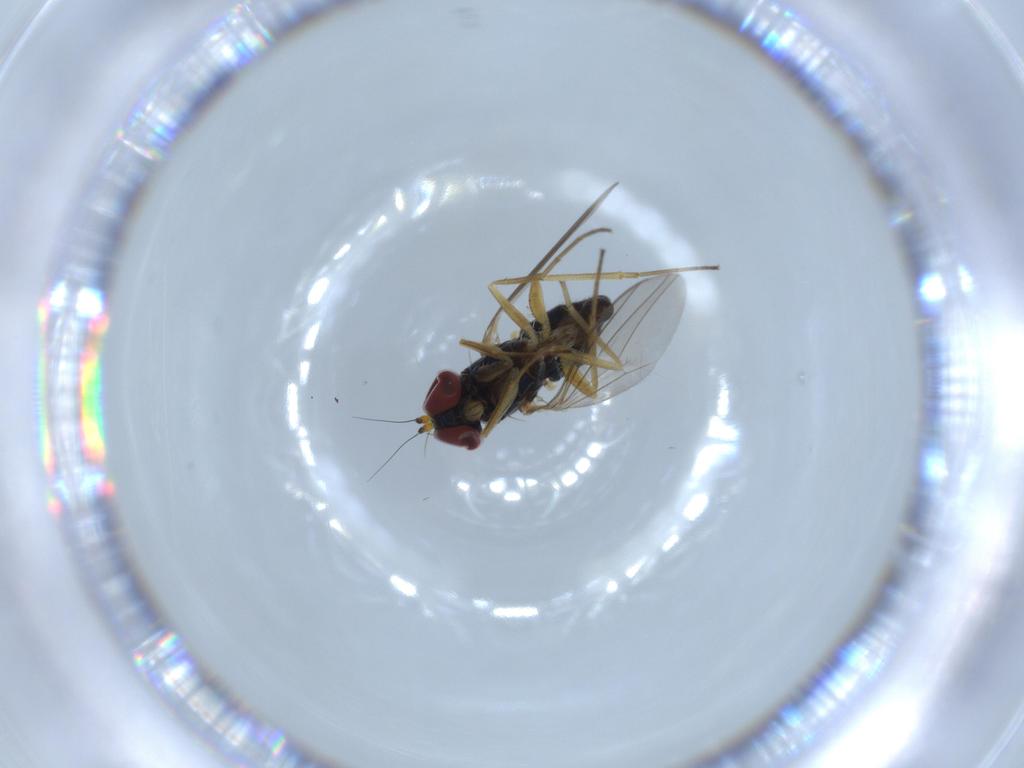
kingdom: Animalia
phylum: Arthropoda
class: Insecta
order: Diptera
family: Dolichopodidae
